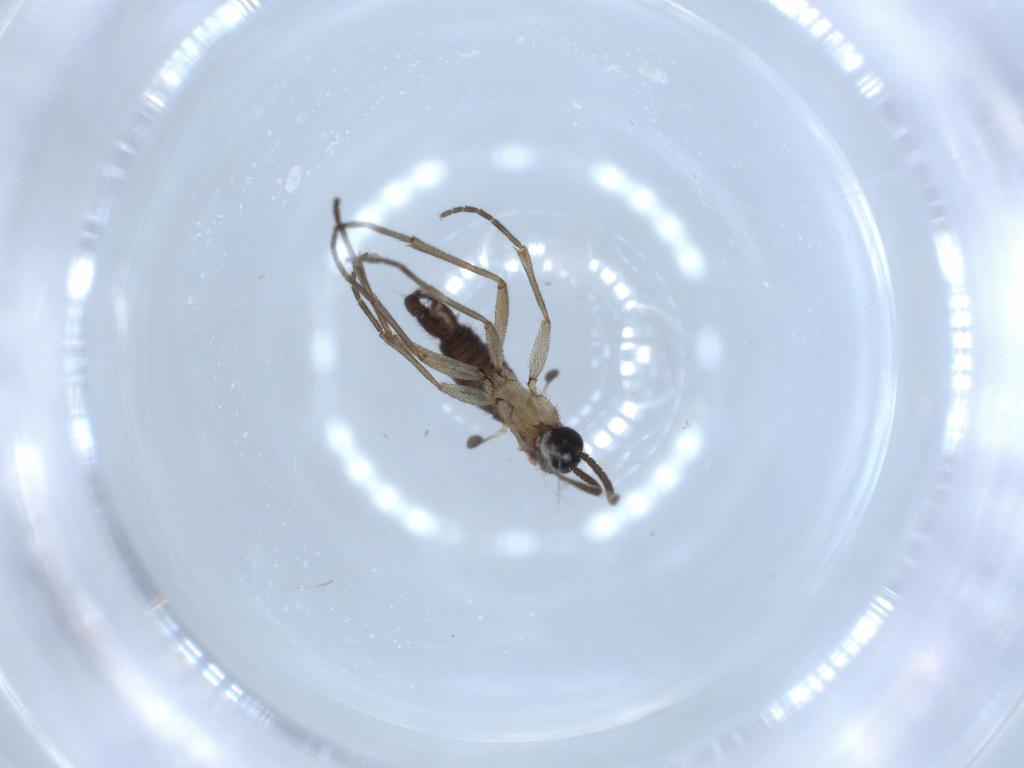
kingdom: Animalia
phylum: Arthropoda
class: Insecta
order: Diptera
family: Sciaridae
